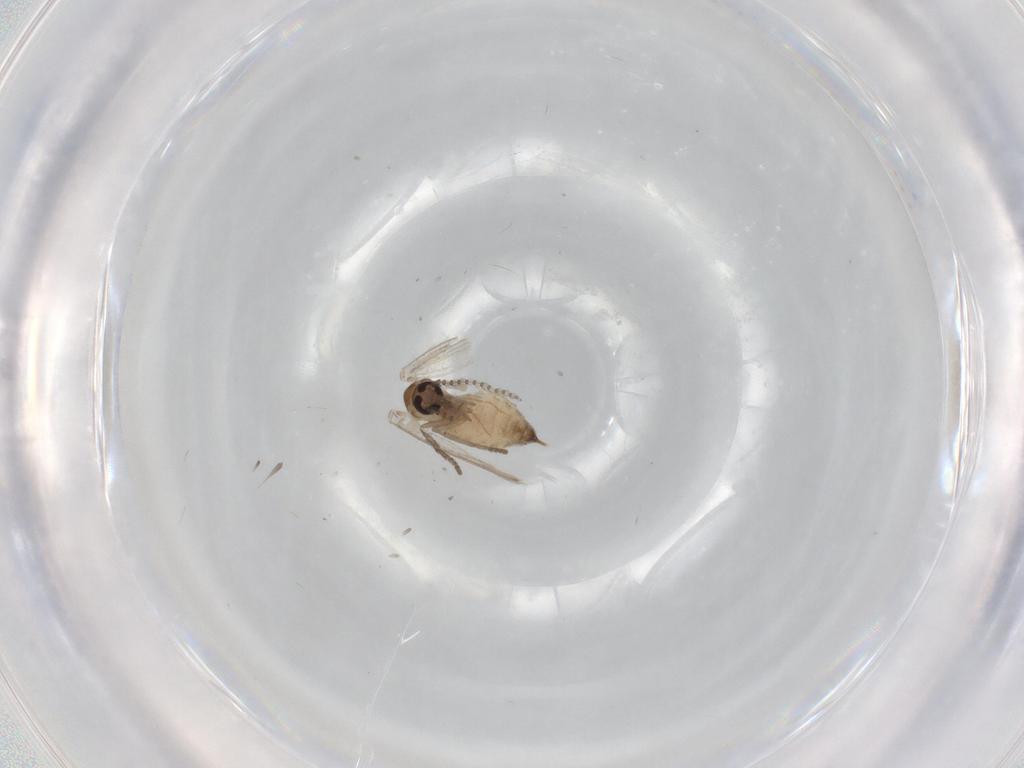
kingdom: Animalia
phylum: Arthropoda
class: Insecta
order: Diptera
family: Psychodidae
